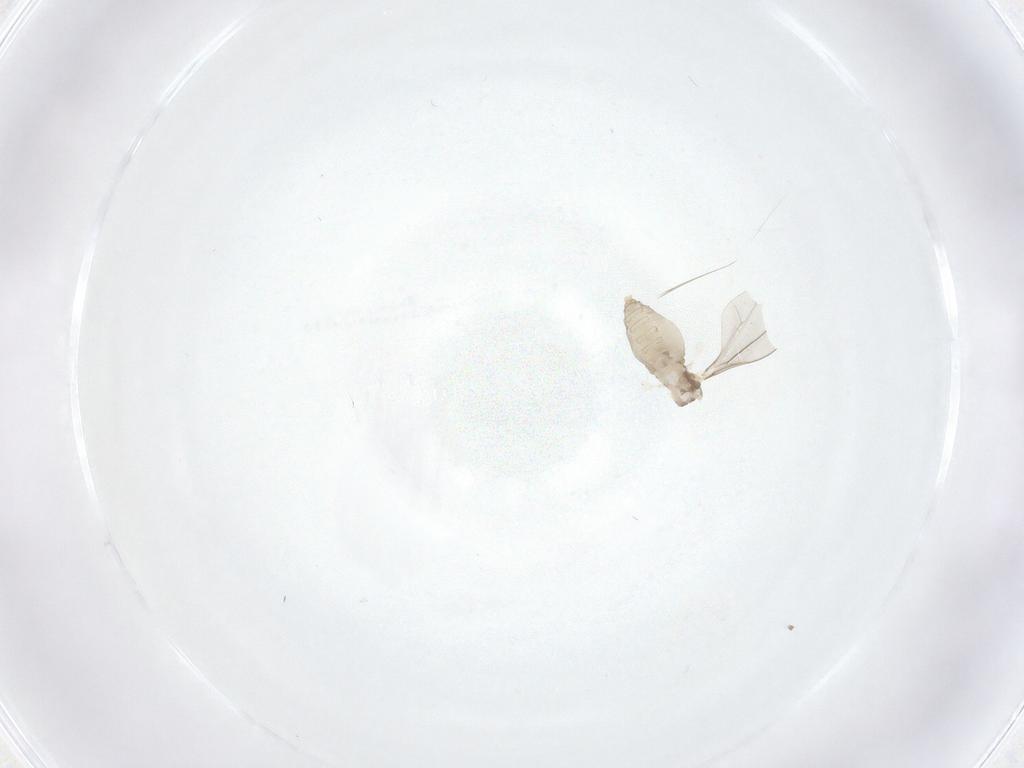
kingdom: Animalia
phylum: Arthropoda
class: Insecta
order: Diptera
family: Cecidomyiidae
